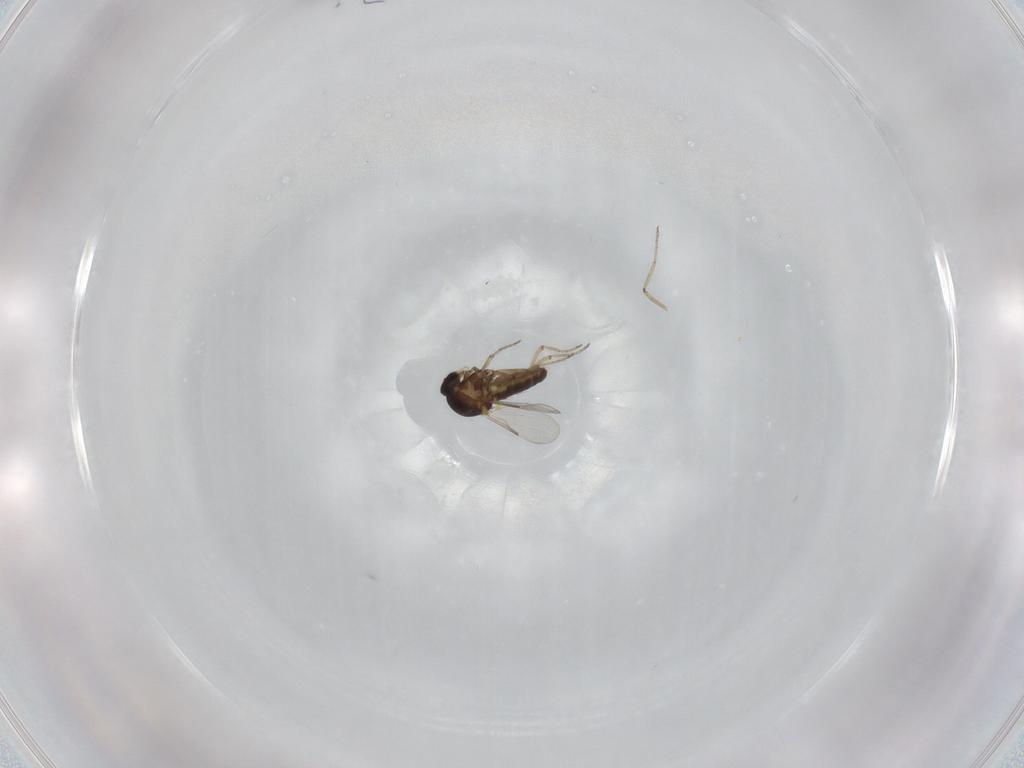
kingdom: Animalia
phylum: Arthropoda
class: Insecta
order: Diptera
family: Ceratopogonidae
